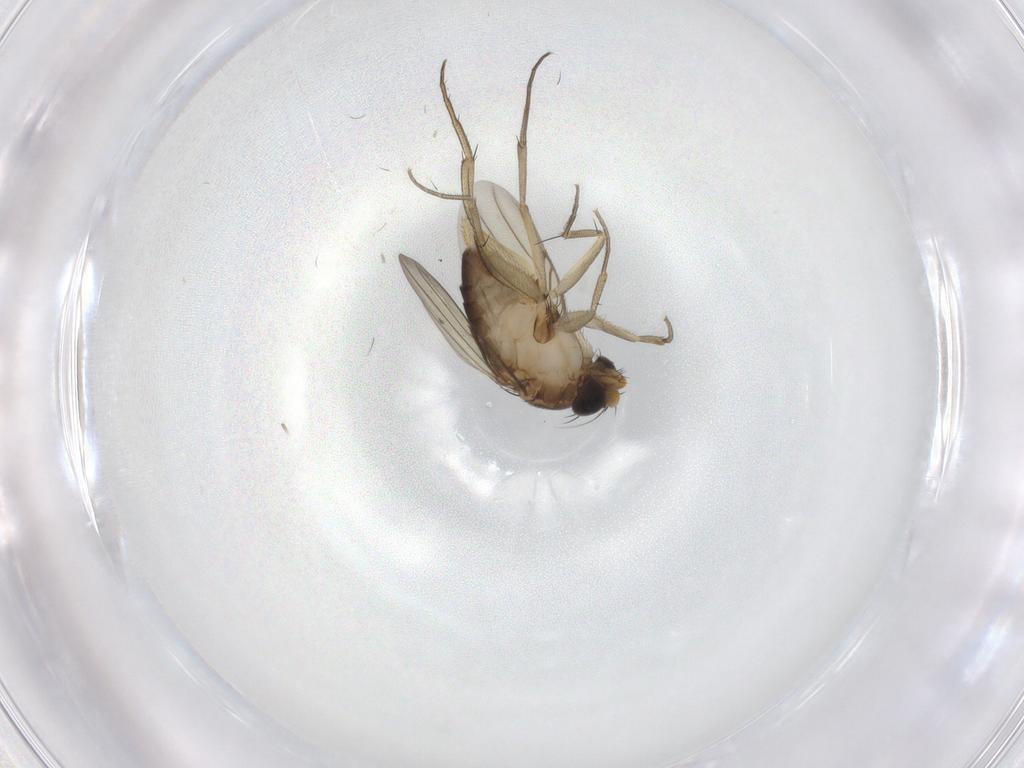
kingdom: Animalia
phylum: Arthropoda
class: Insecta
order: Diptera
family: Phoridae
